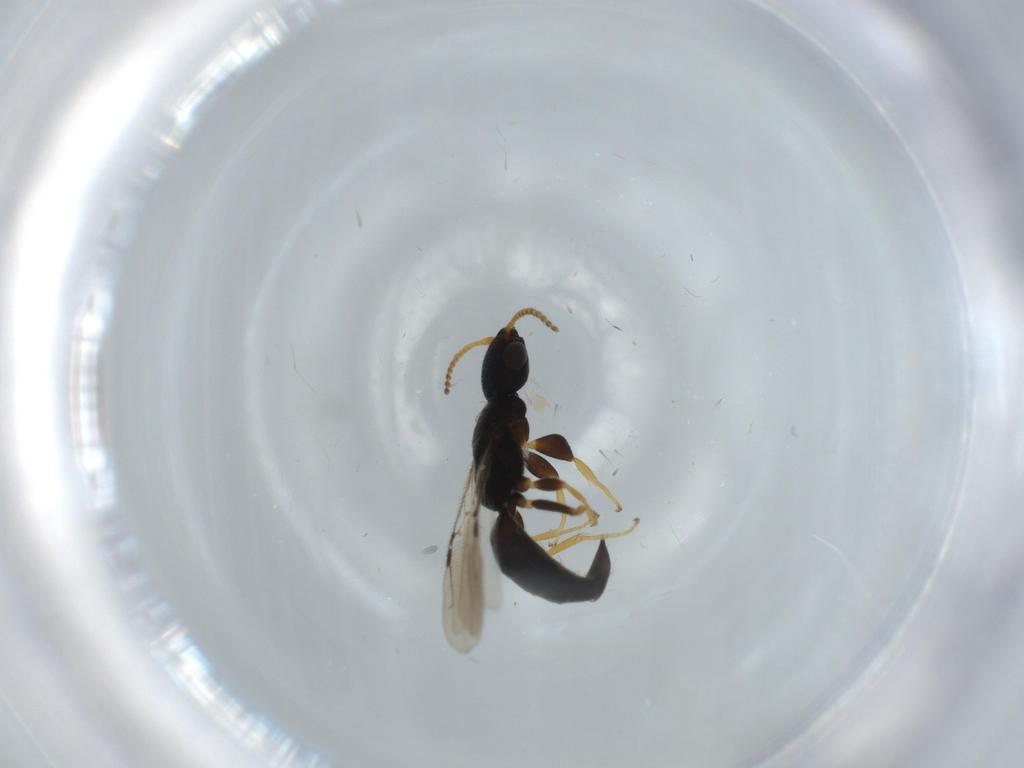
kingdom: Animalia
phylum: Arthropoda
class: Insecta
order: Hymenoptera
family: Bethylidae
